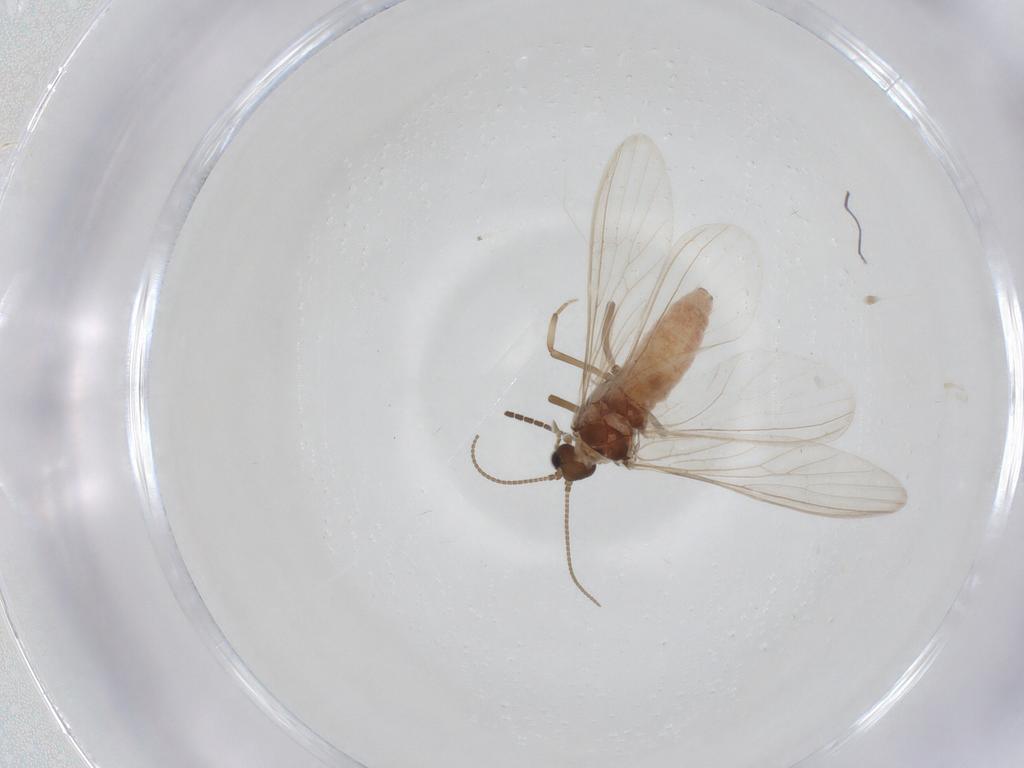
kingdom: Animalia
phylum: Arthropoda
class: Insecta
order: Neuroptera
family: Coniopterygidae
